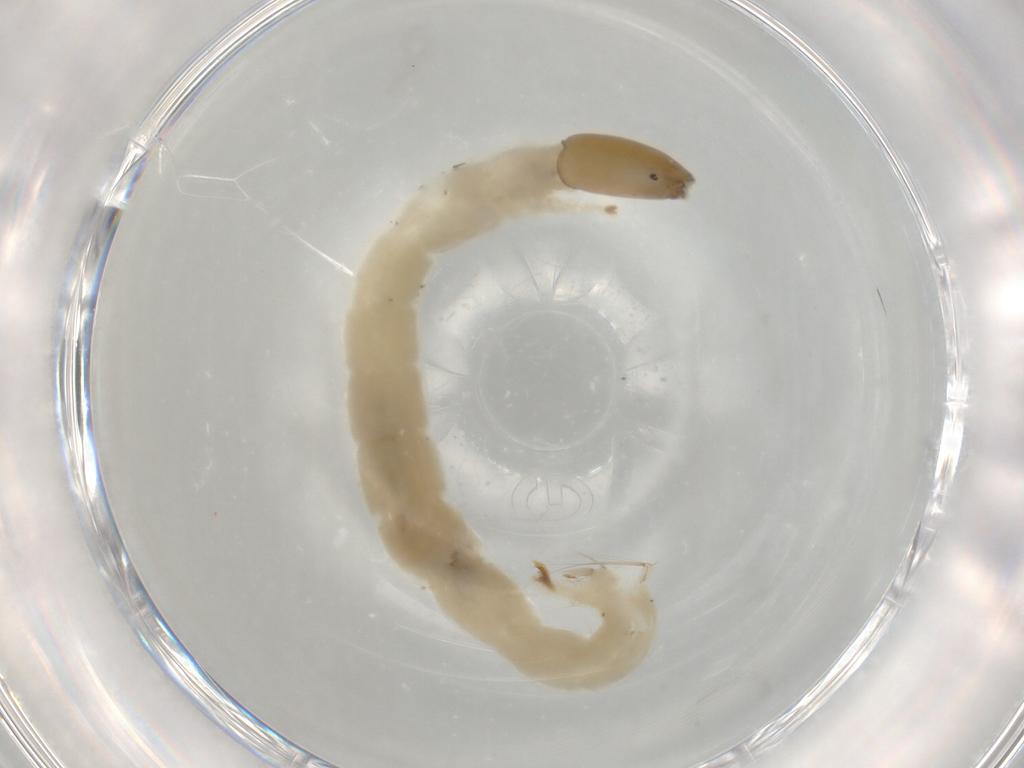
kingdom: Animalia
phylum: Arthropoda
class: Insecta
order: Diptera
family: Chironomidae
